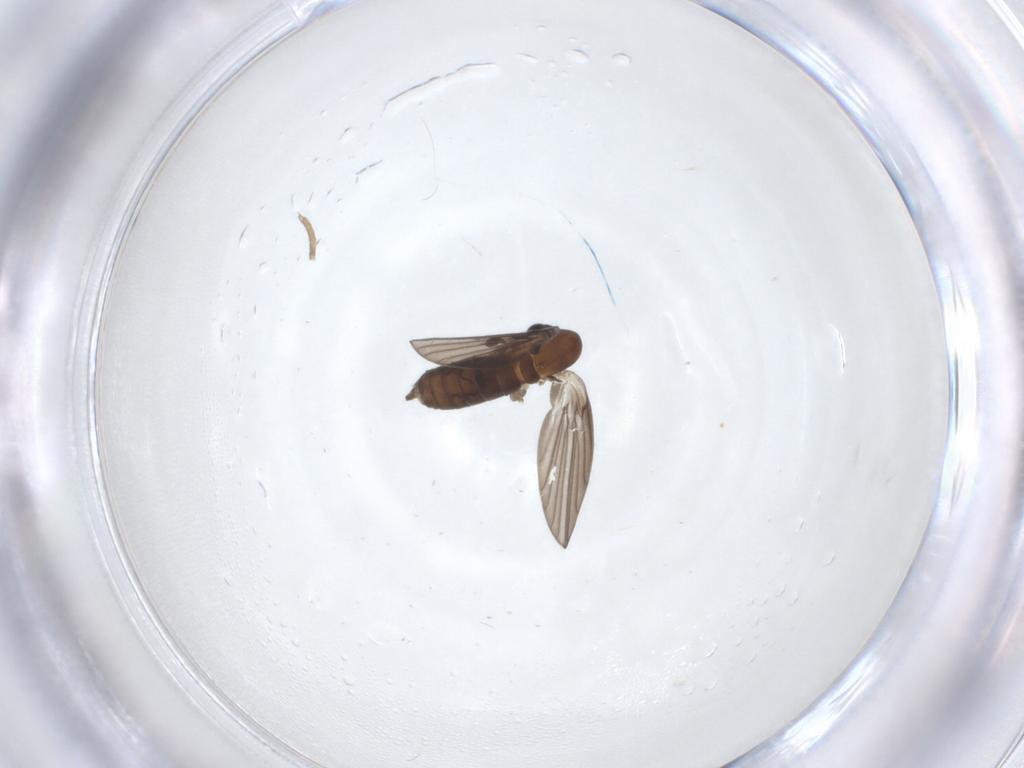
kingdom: Animalia
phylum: Arthropoda
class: Insecta
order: Diptera
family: Psychodidae
